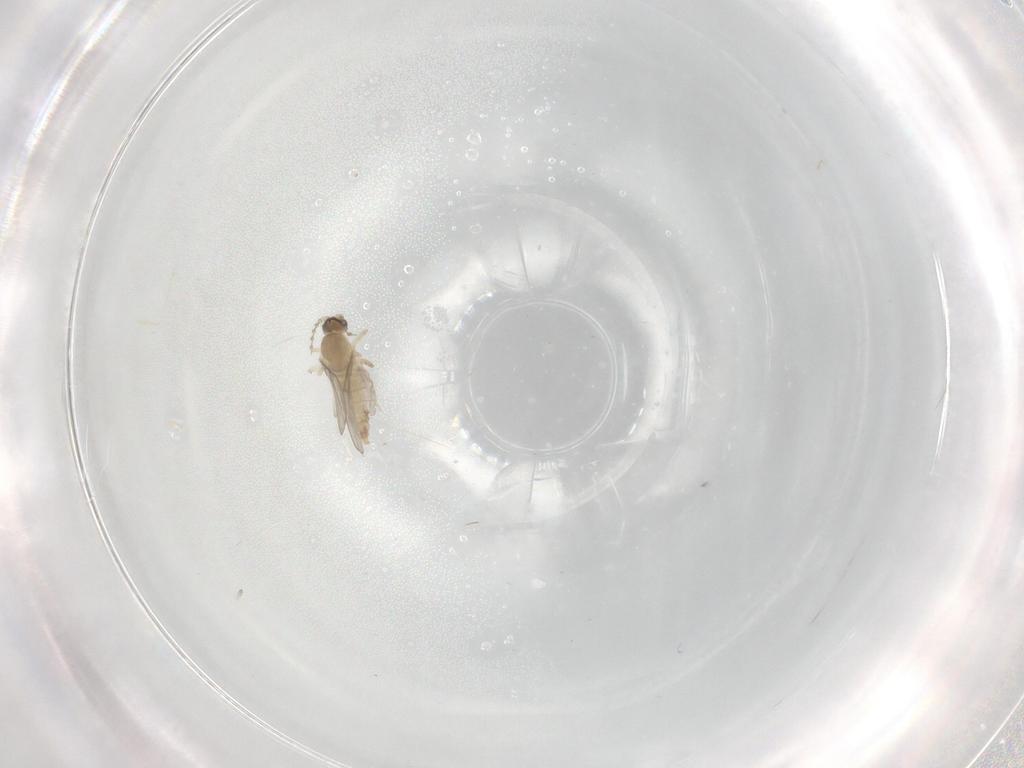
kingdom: Animalia
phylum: Arthropoda
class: Insecta
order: Diptera
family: Cecidomyiidae
